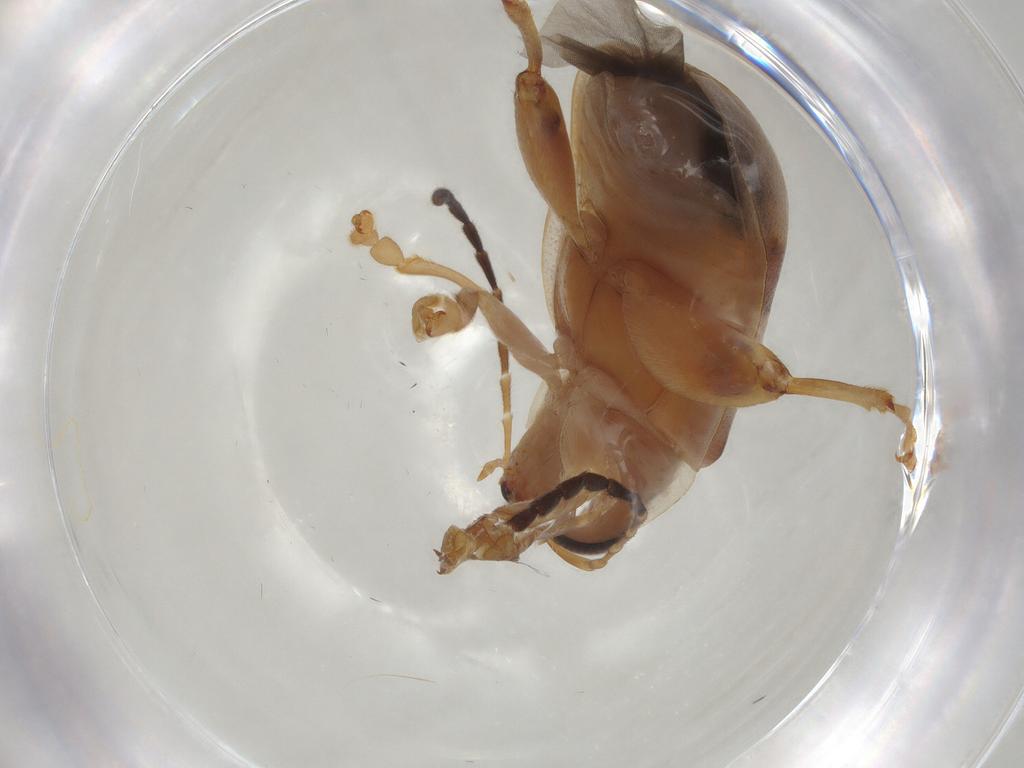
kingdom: Animalia
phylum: Arthropoda
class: Insecta
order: Coleoptera
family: Chrysomelidae
